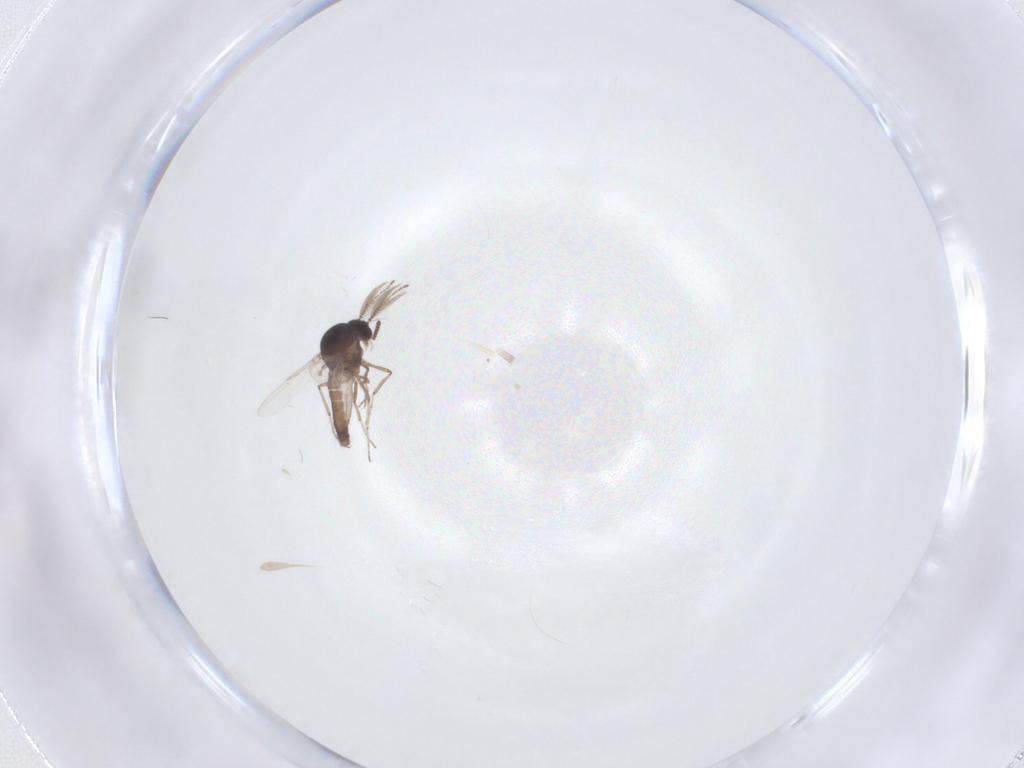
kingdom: Animalia
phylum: Arthropoda
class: Insecta
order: Diptera
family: Ceratopogonidae
